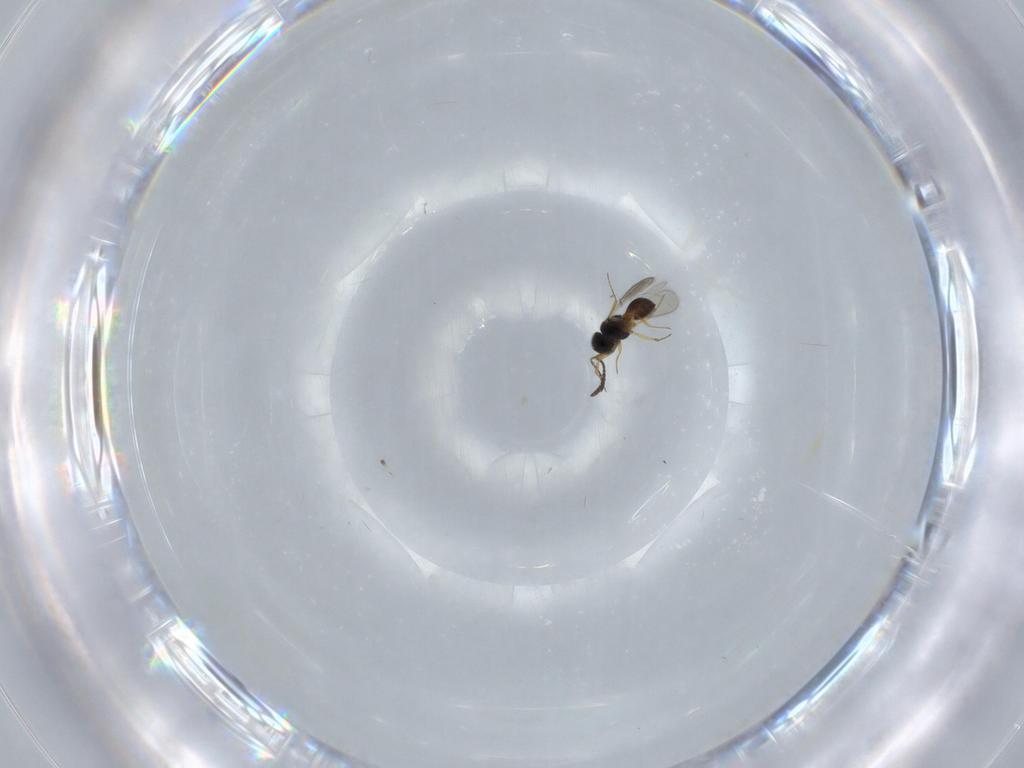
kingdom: Animalia
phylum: Arthropoda
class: Insecta
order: Hymenoptera
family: Scelionidae
